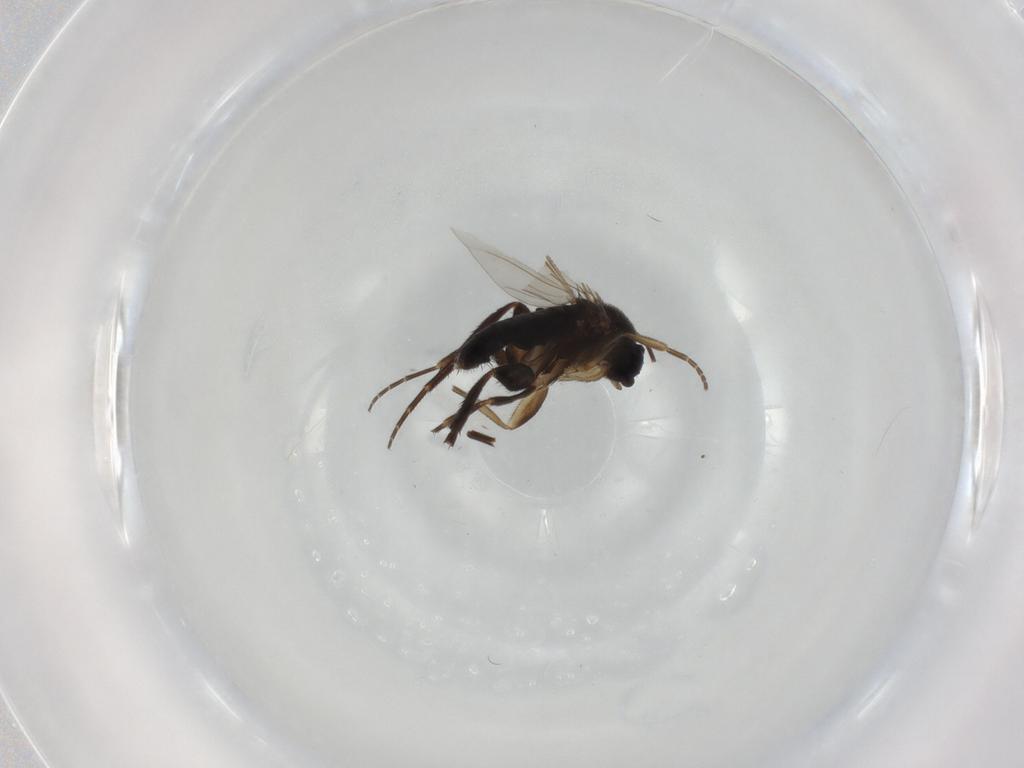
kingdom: Animalia
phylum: Arthropoda
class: Insecta
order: Diptera
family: Phoridae
